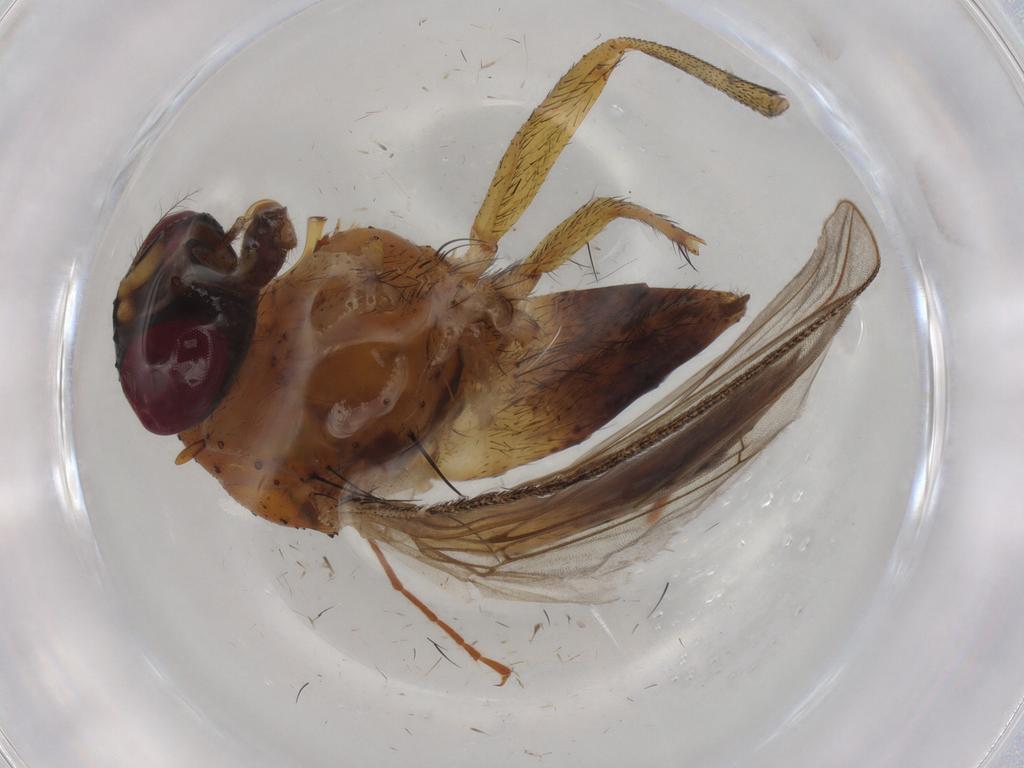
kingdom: Animalia
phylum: Arthropoda
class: Insecta
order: Diptera
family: Muscidae
